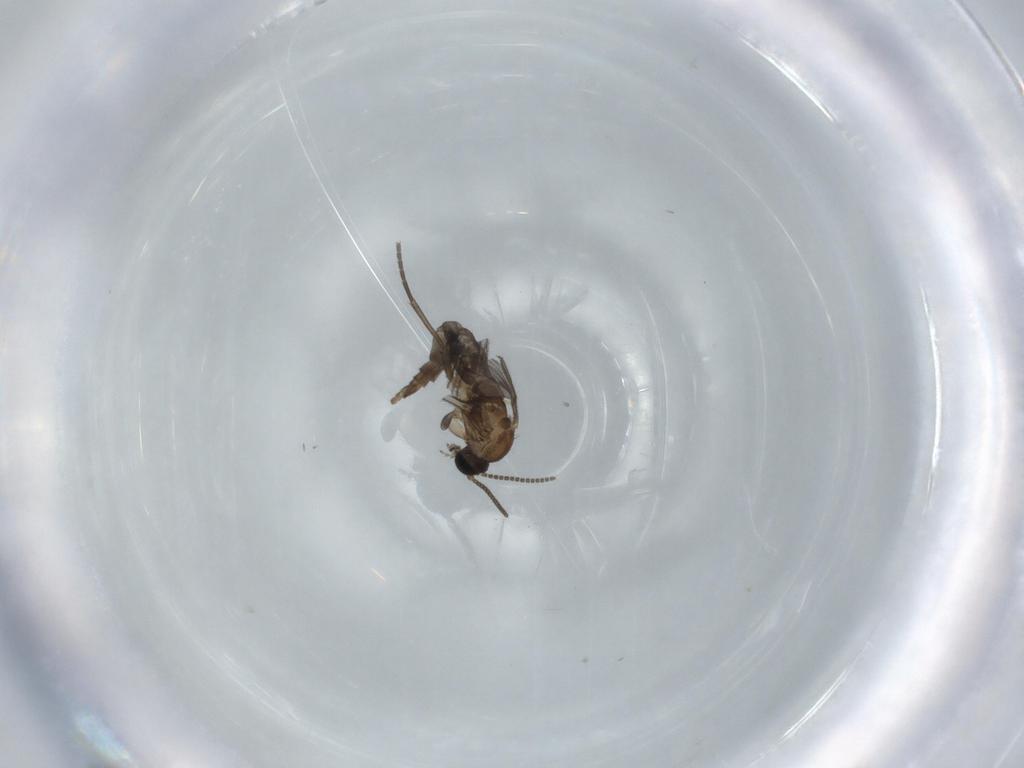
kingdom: Animalia
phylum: Arthropoda
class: Insecta
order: Diptera
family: Sciaridae
